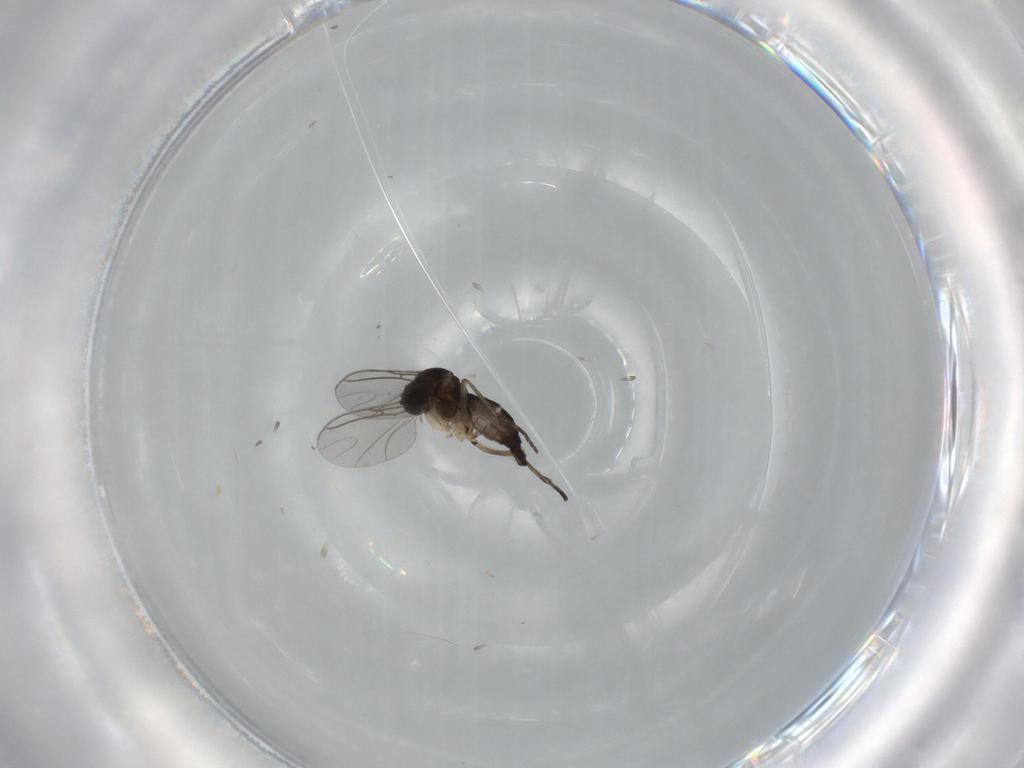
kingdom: Animalia
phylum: Arthropoda
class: Insecta
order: Diptera
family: Sciaridae
